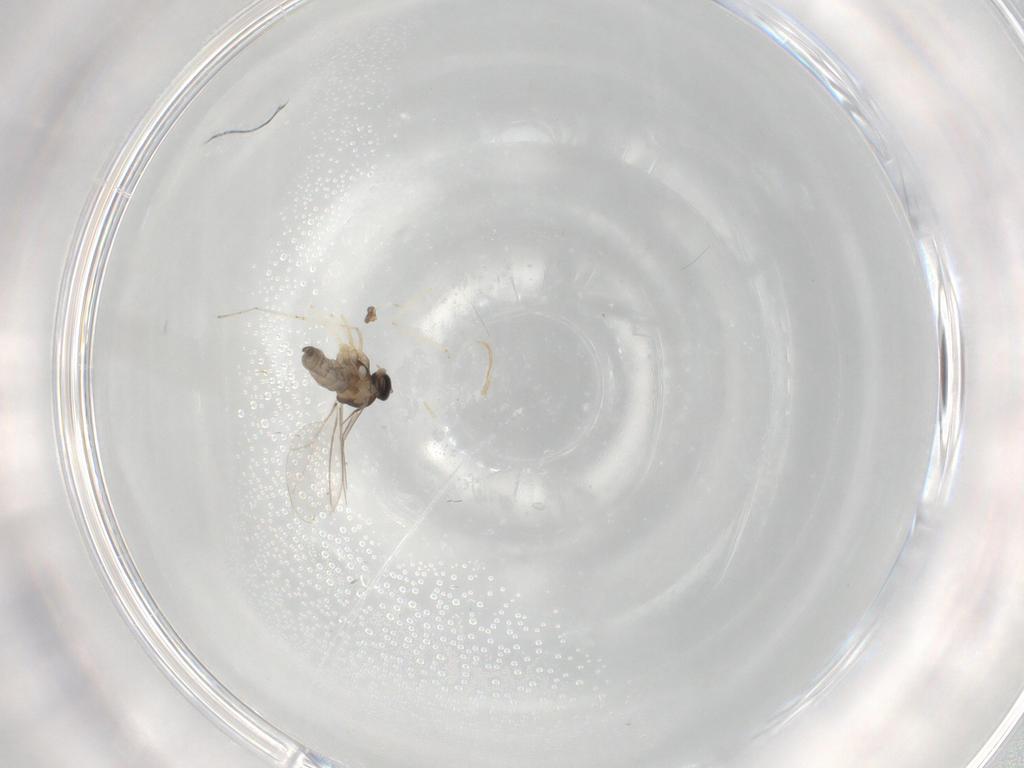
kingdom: Animalia
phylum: Arthropoda
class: Insecta
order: Diptera
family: Cecidomyiidae
